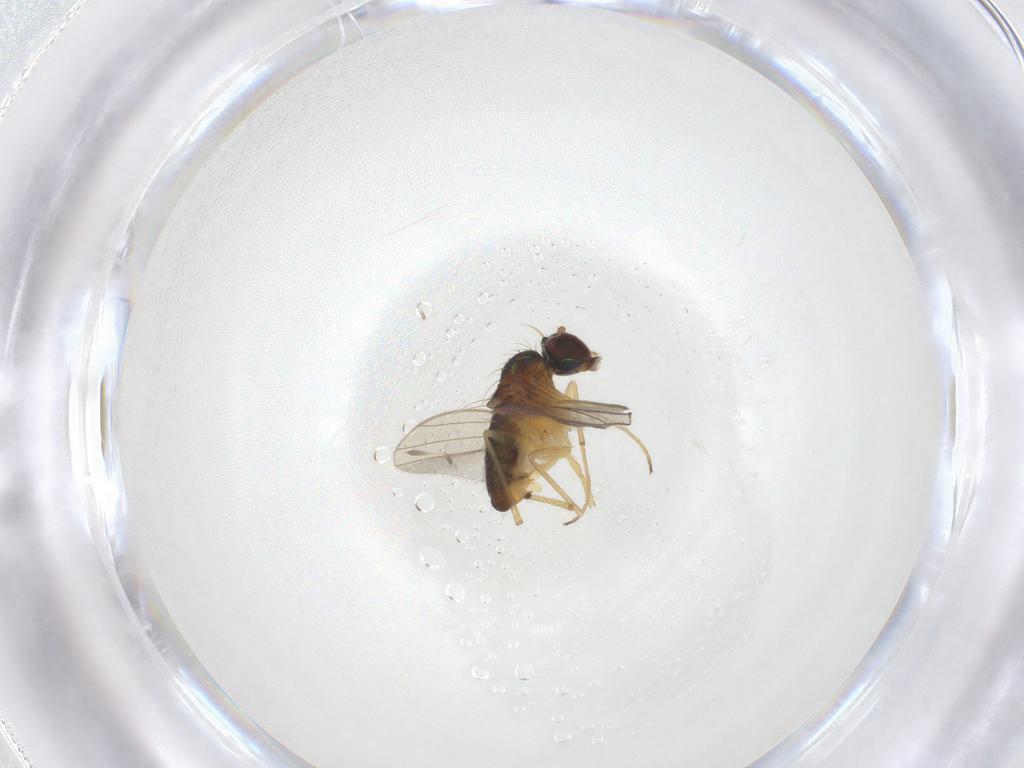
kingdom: Animalia
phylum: Arthropoda
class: Insecta
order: Diptera
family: Dolichopodidae
